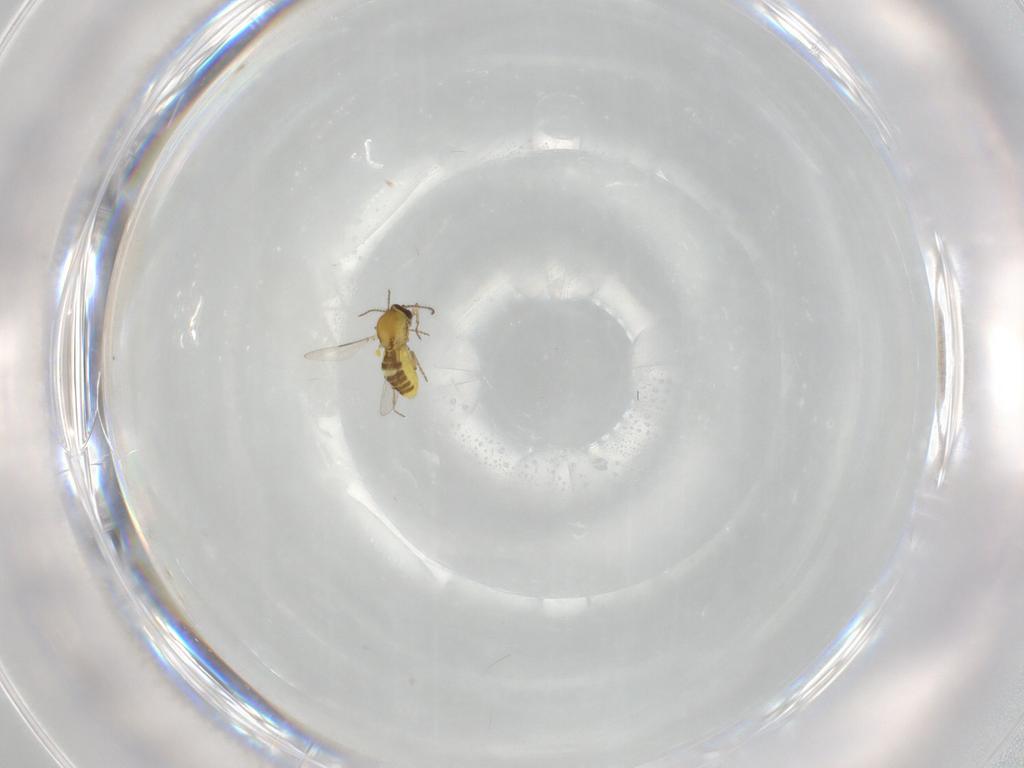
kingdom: Animalia
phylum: Arthropoda
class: Insecta
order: Diptera
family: Ceratopogonidae
